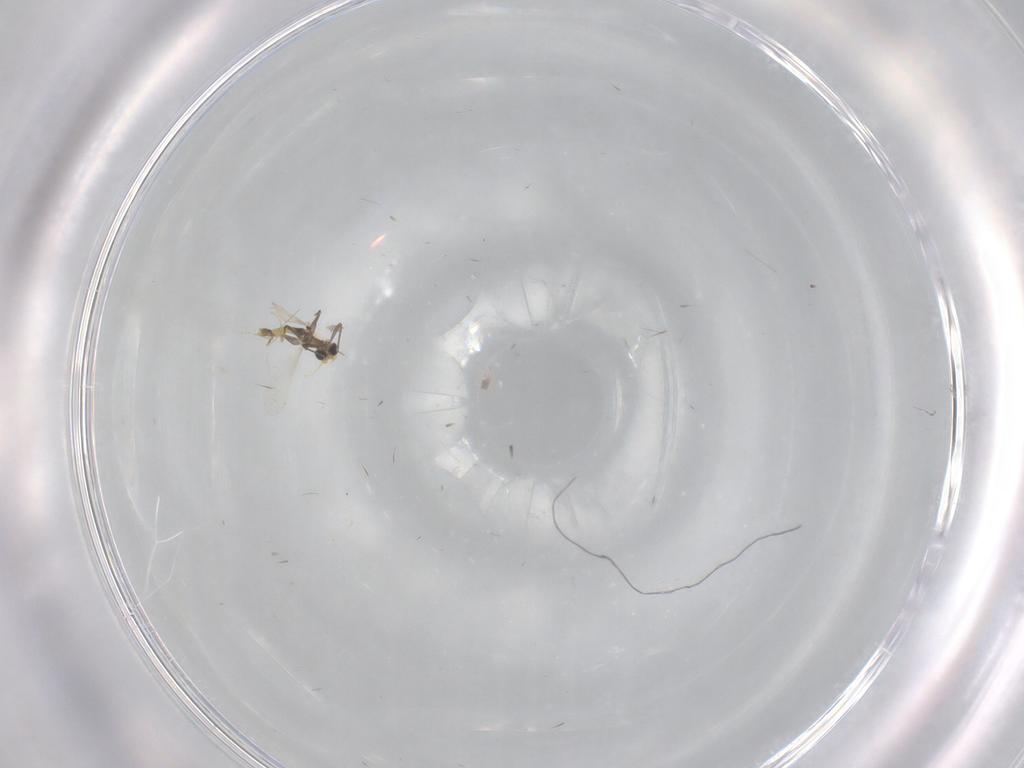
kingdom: Animalia
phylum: Arthropoda
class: Insecta
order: Diptera
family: Chironomidae
